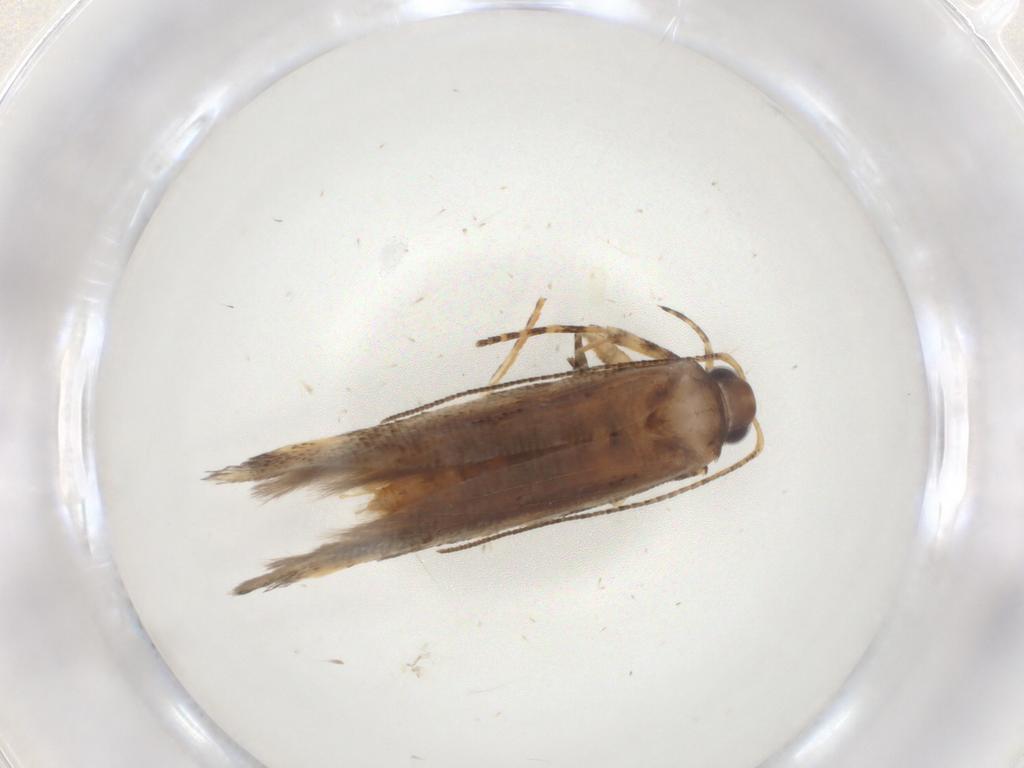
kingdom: Animalia
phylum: Arthropoda
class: Insecta
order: Lepidoptera
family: Gelechiidae
